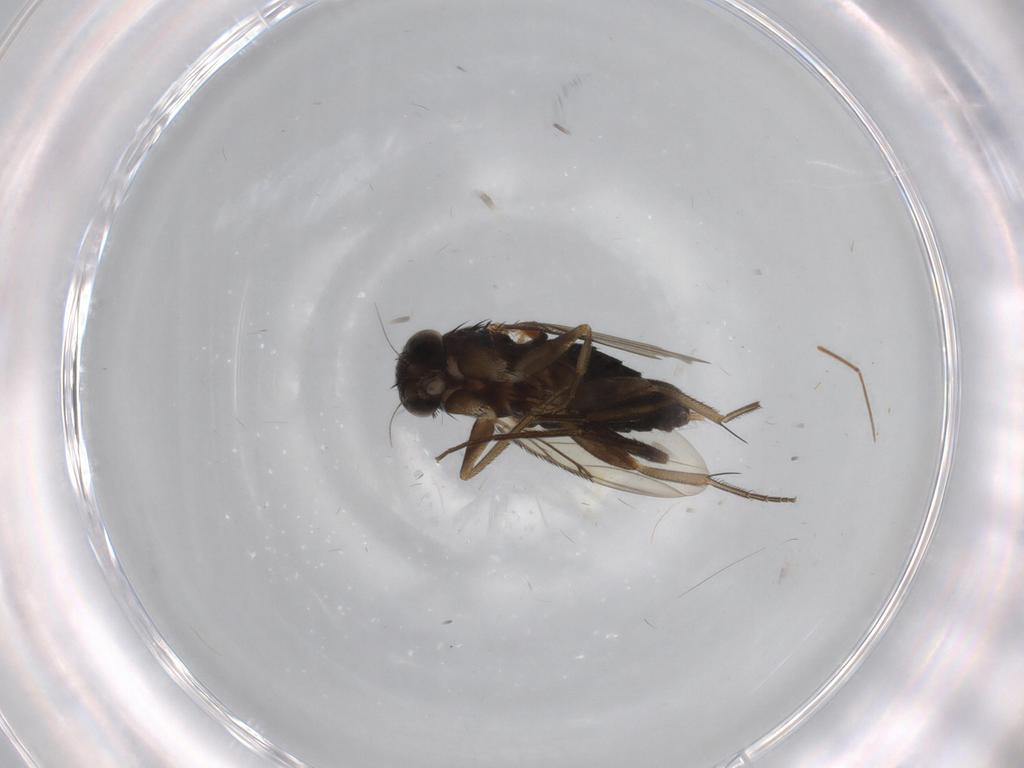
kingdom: Animalia
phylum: Arthropoda
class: Insecta
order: Diptera
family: Phoridae
